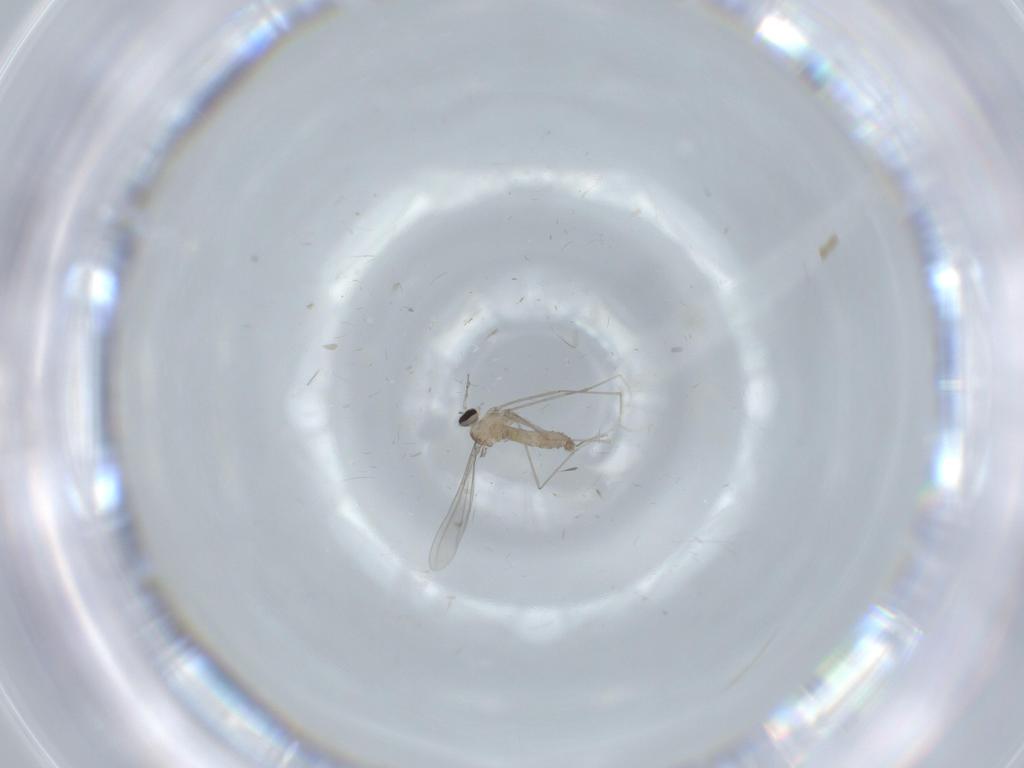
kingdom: Animalia
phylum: Arthropoda
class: Insecta
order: Diptera
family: Cecidomyiidae
